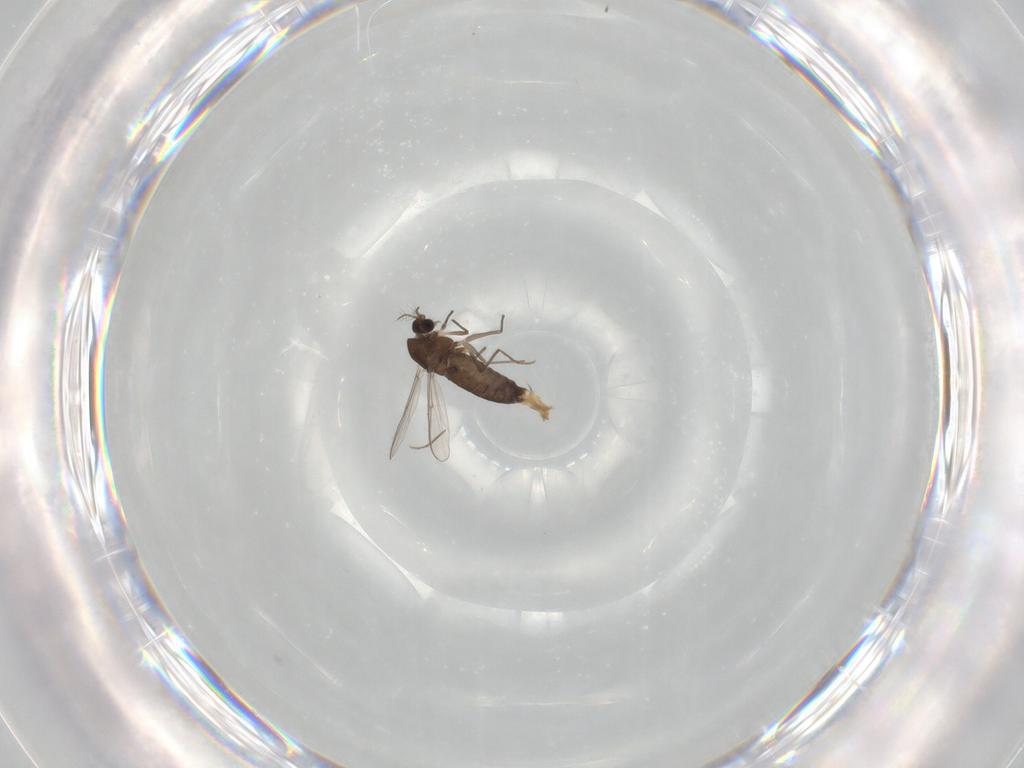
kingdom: Animalia
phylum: Arthropoda
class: Insecta
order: Diptera
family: Chironomidae
